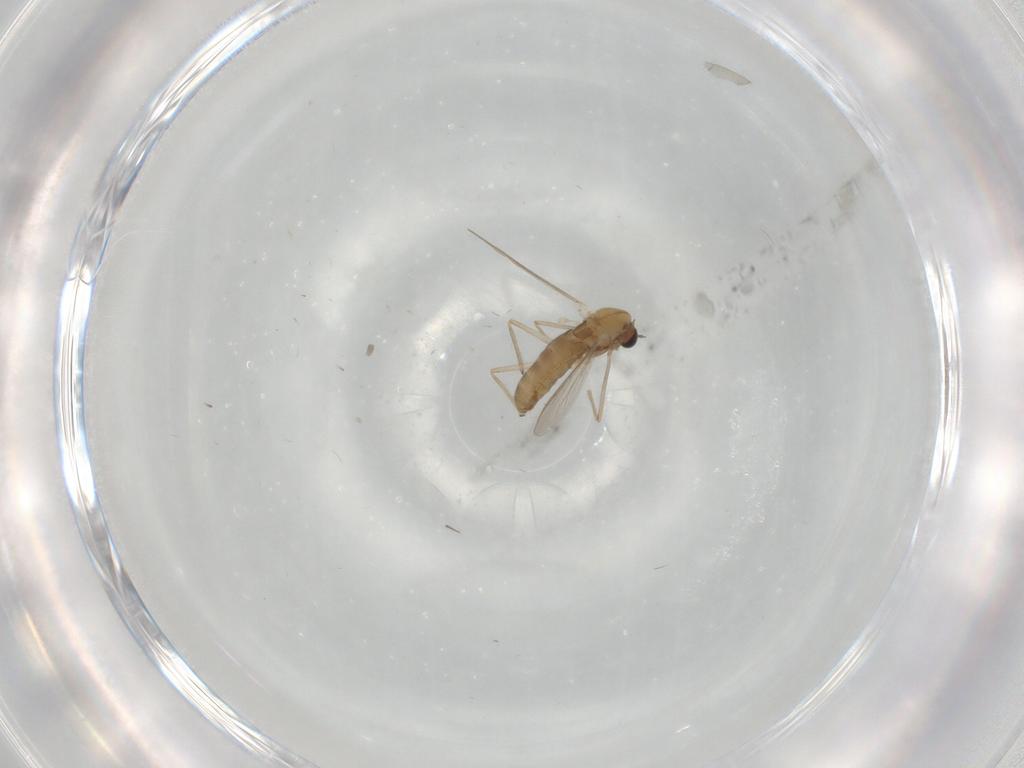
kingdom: Animalia
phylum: Arthropoda
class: Insecta
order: Diptera
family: Chironomidae
